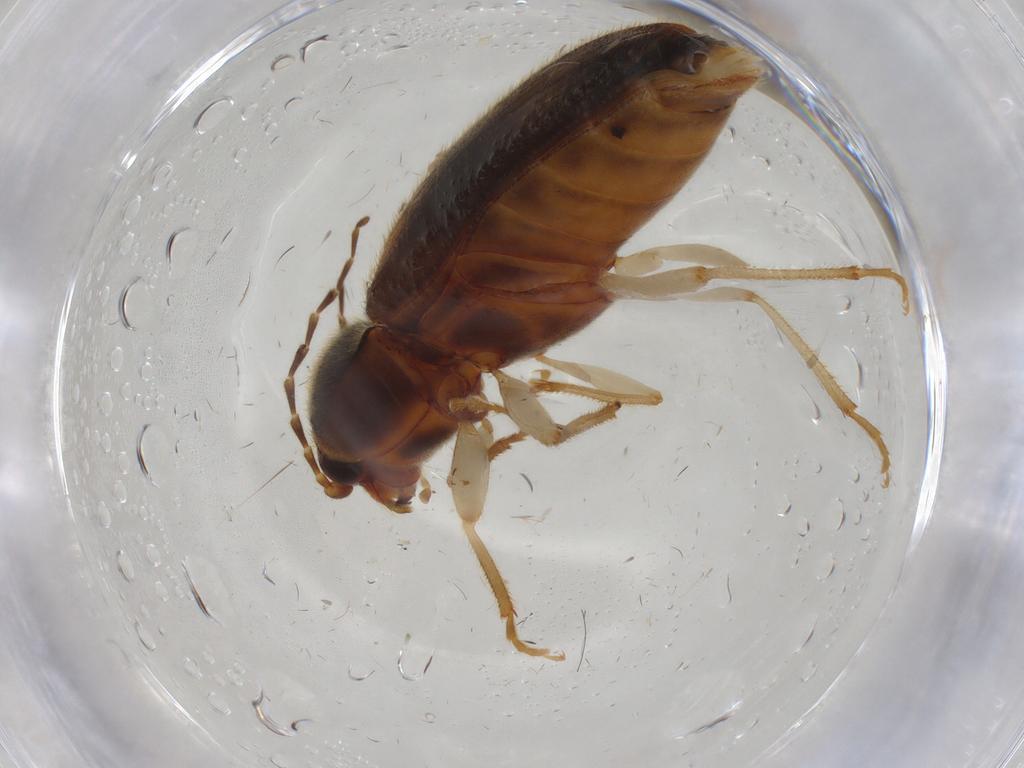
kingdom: Animalia
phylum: Arthropoda
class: Insecta
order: Coleoptera
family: Elateridae
